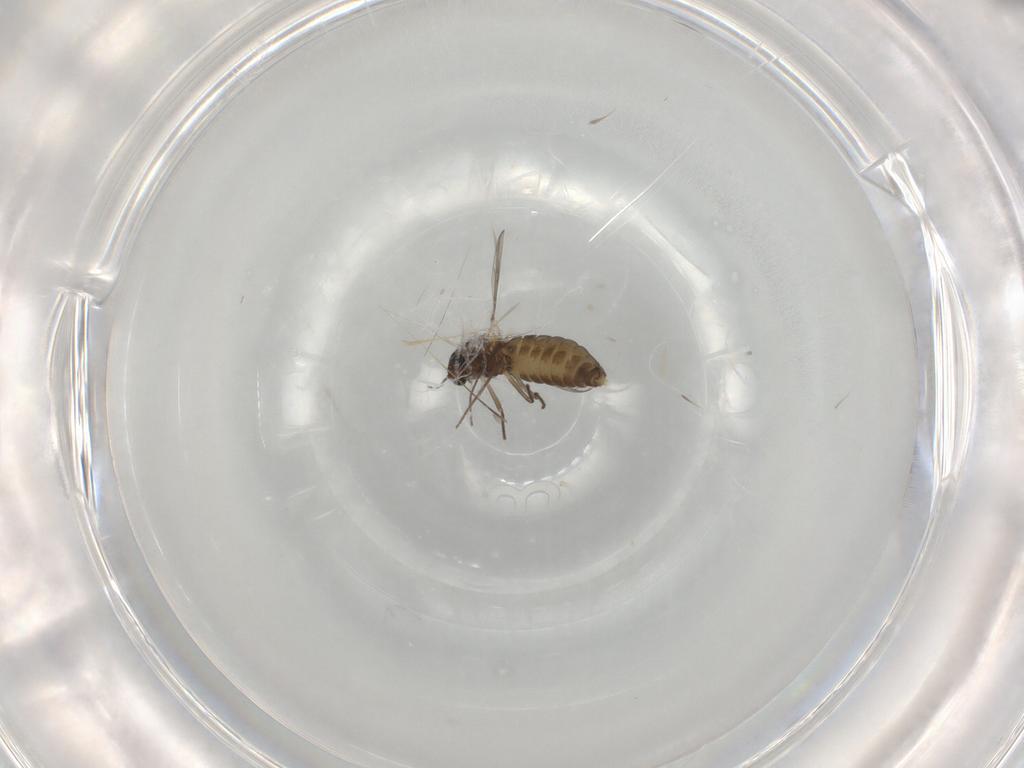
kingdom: Animalia
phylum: Arthropoda
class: Insecta
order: Diptera
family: Chironomidae
